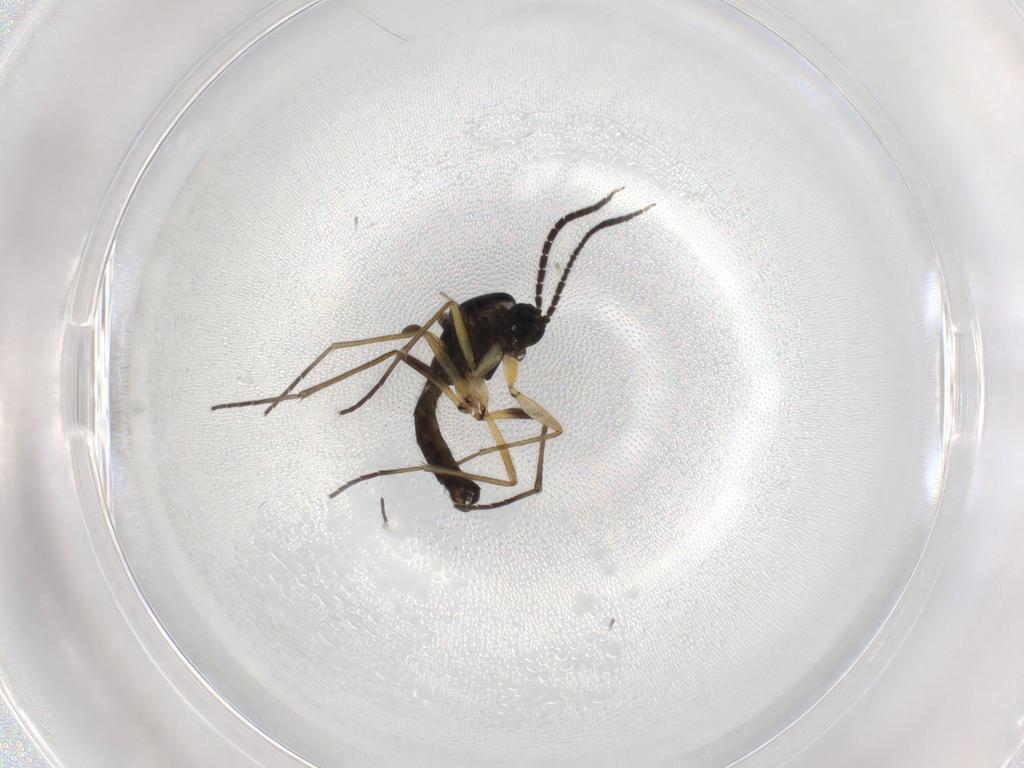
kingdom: Animalia
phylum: Arthropoda
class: Insecta
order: Diptera
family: Sciaridae
